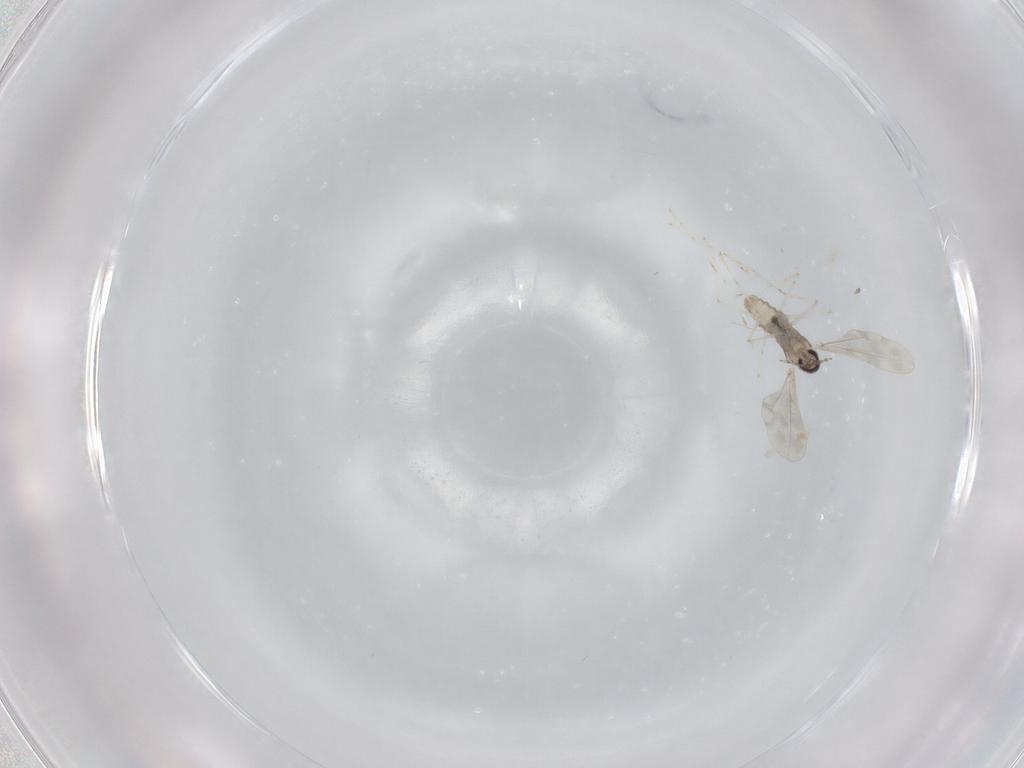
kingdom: Animalia
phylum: Arthropoda
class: Insecta
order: Diptera
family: Cecidomyiidae
